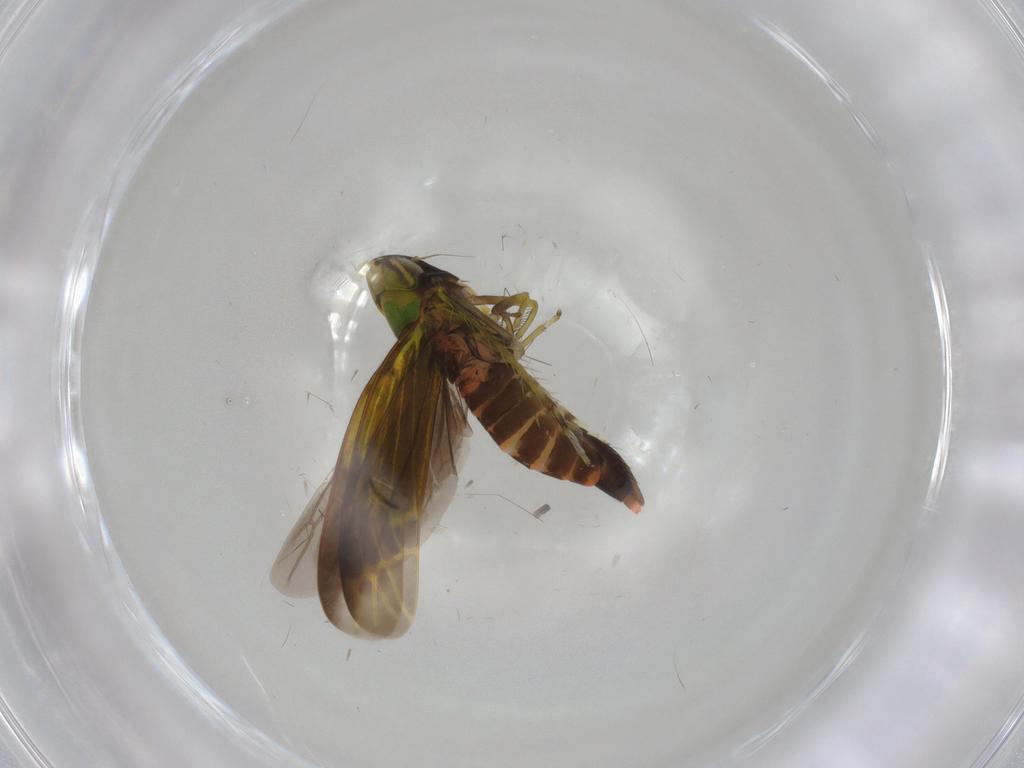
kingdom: Animalia
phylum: Arthropoda
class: Insecta
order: Hemiptera
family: Cicadellidae
